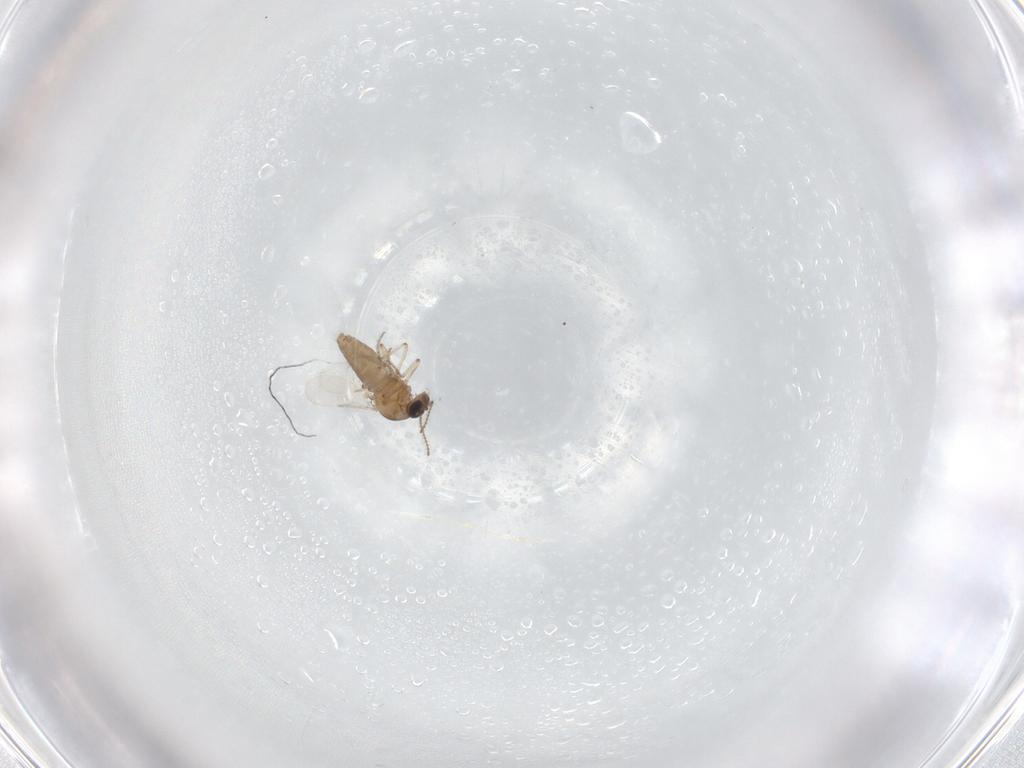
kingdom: Animalia
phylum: Arthropoda
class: Insecta
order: Diptera
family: Ceratopogonidae
